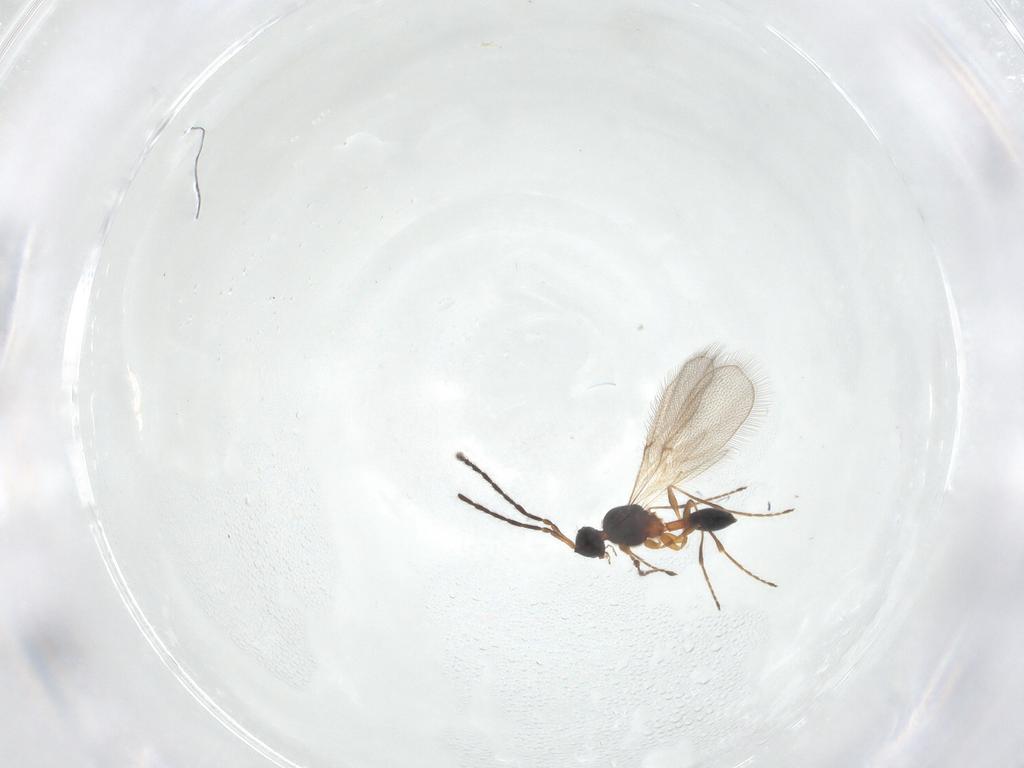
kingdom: Animalia
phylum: Arthropoda
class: Insecta
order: Hymenoptera
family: Diapriidae
